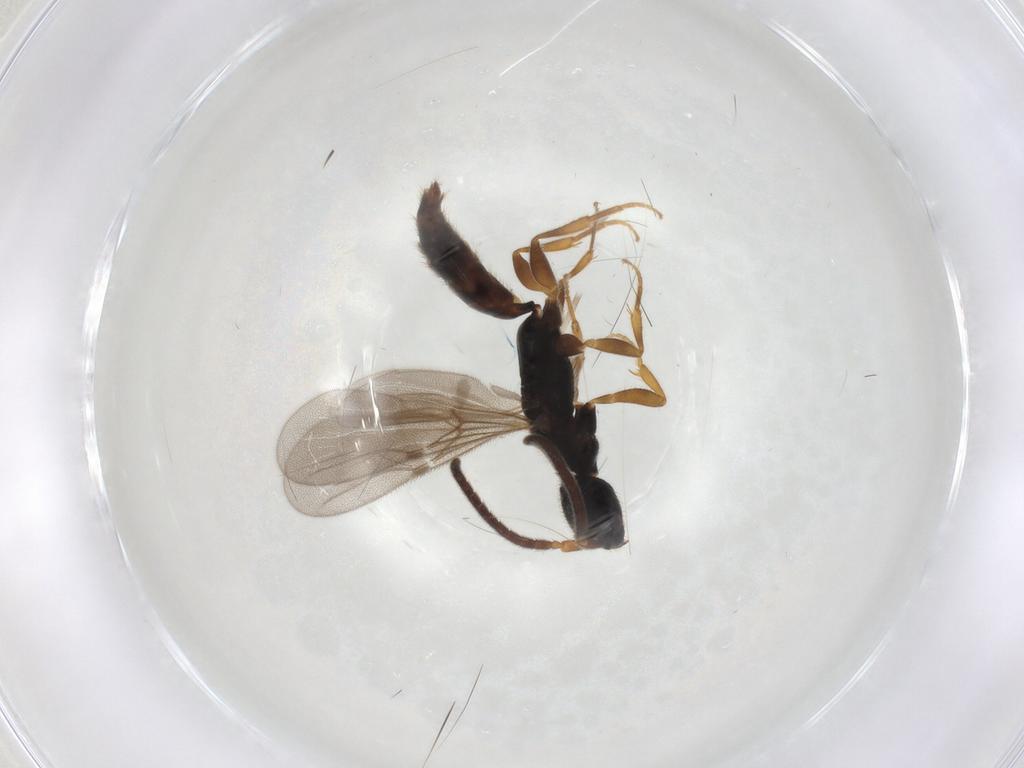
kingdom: Animalia
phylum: Arthropoda
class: Insecta
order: Hymenoptera
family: Bethylidae
